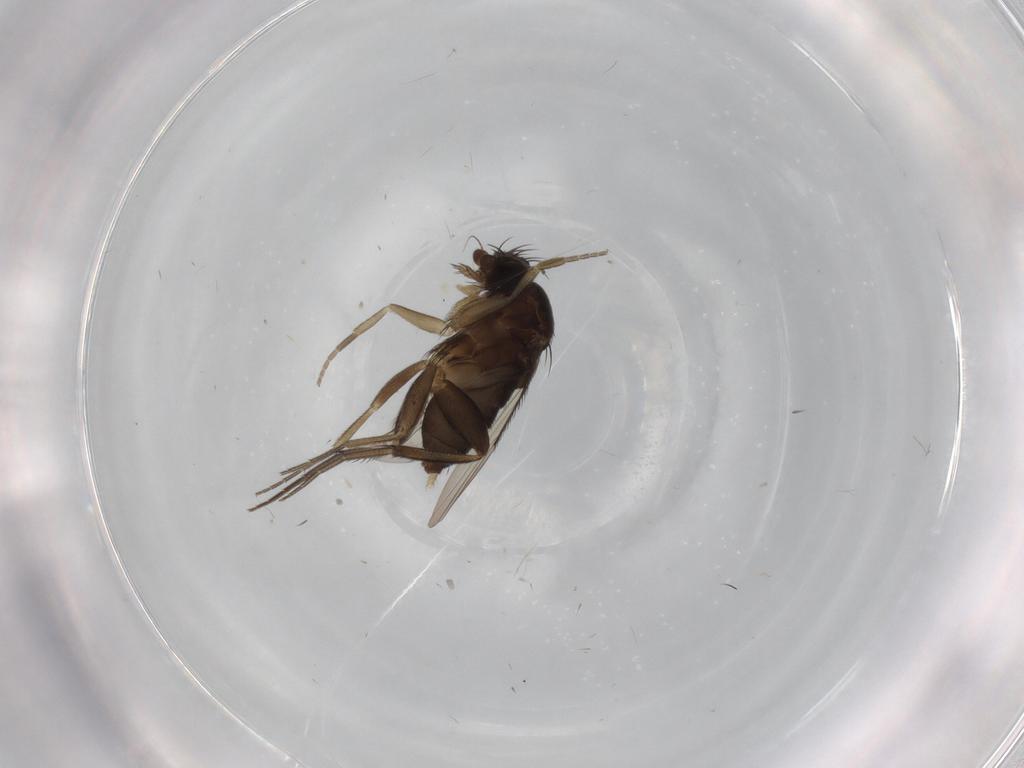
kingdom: Animalia
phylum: Arthropoda
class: Insecta
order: Diptera
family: Phoridae
